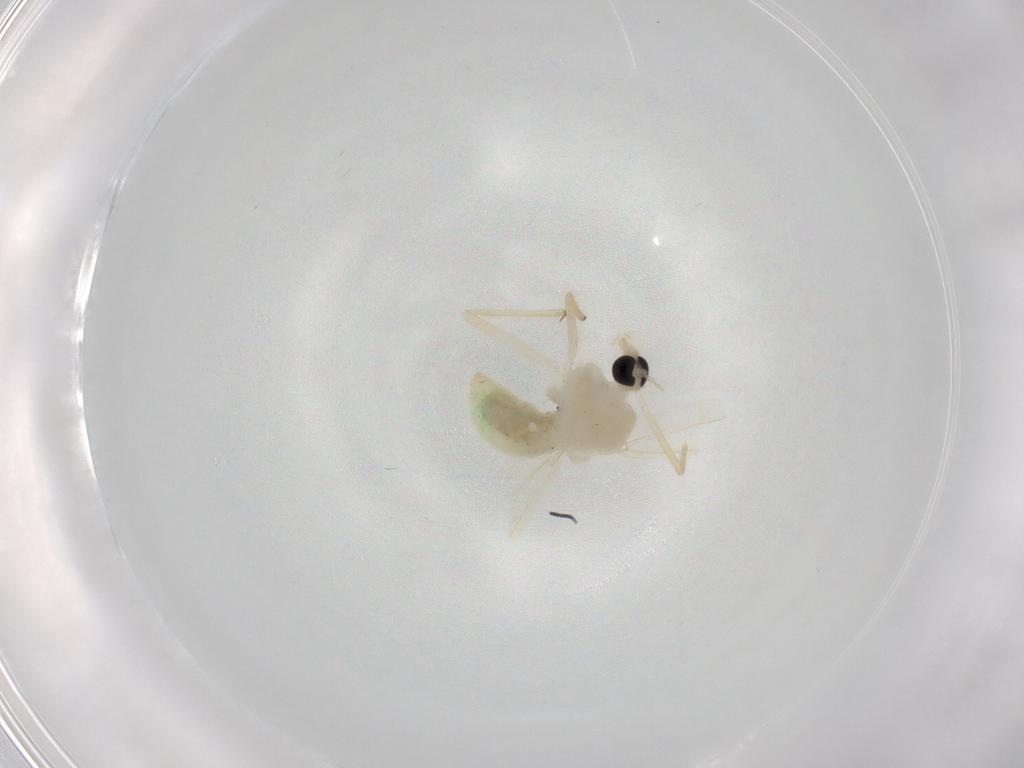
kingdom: Animalia
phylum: Arthropoda
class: Insecta
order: Diptera
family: Chironomidae
